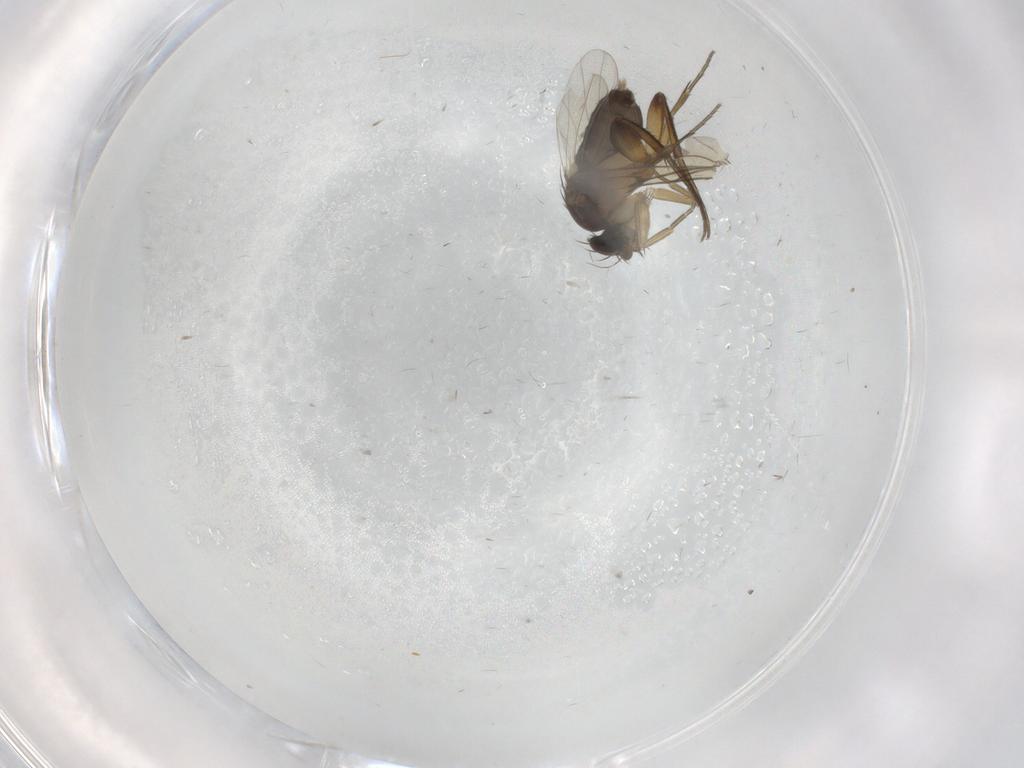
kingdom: Animalia
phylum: Arthropoda
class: Insecta
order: Diptera
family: Phoridae
